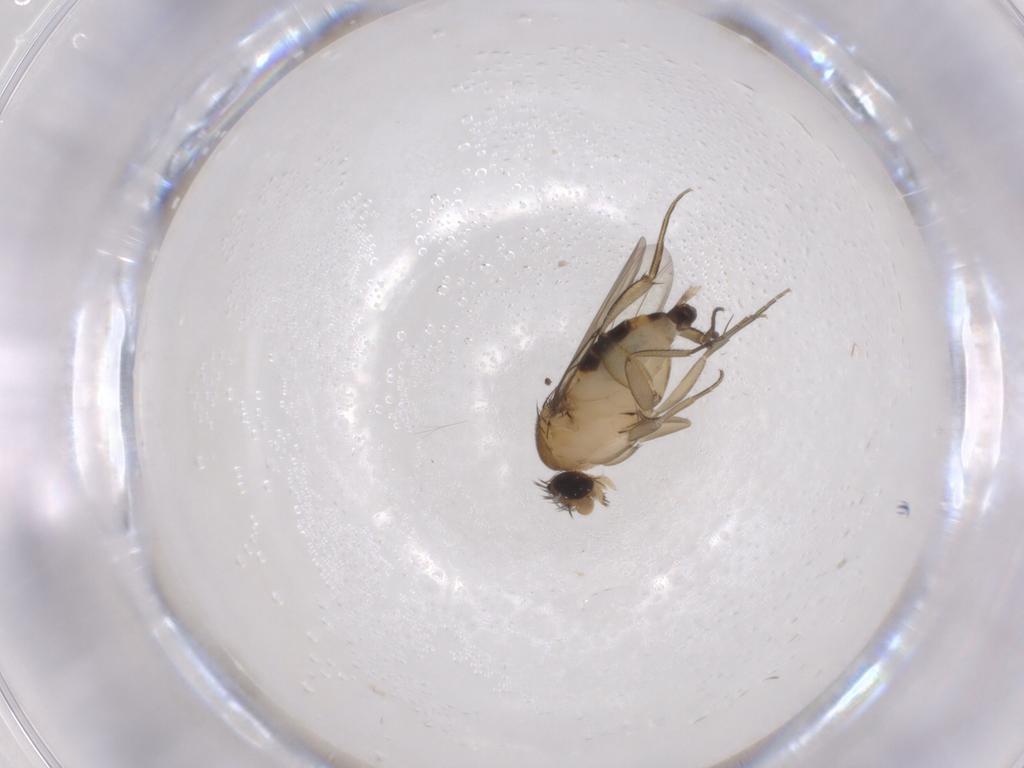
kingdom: Animalia
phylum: Arthropoda
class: Insecta
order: Diptera
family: Phoridae
